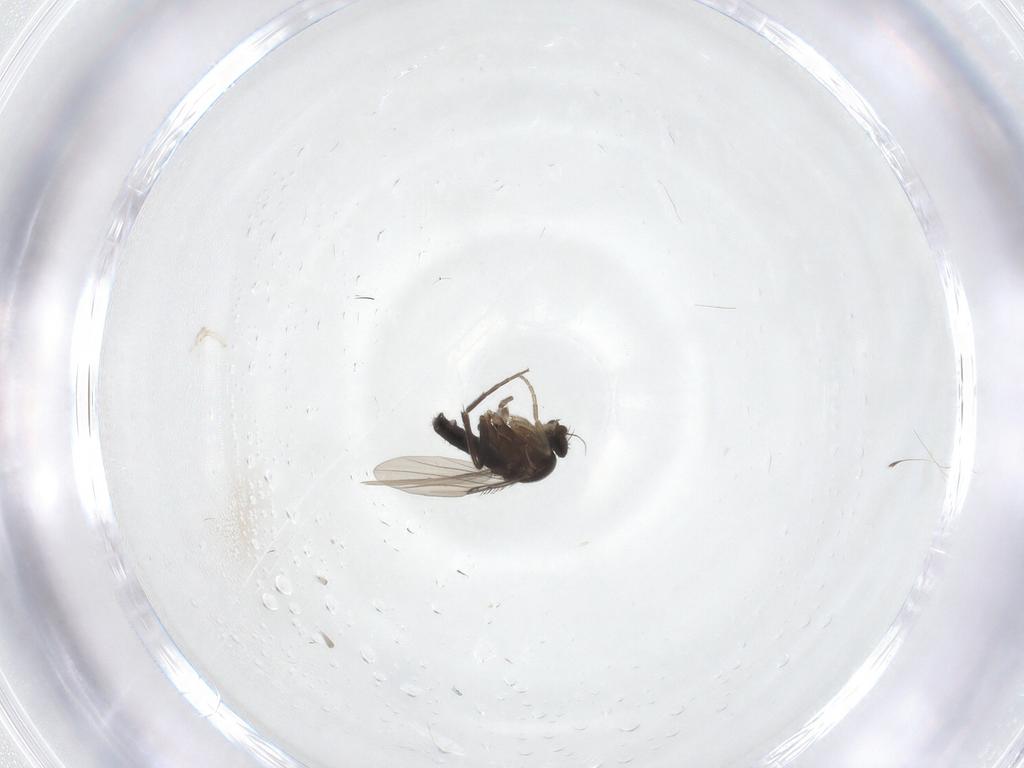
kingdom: Animalia
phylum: Arthropoda
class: Insecta
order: Diptera
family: Phoridae
